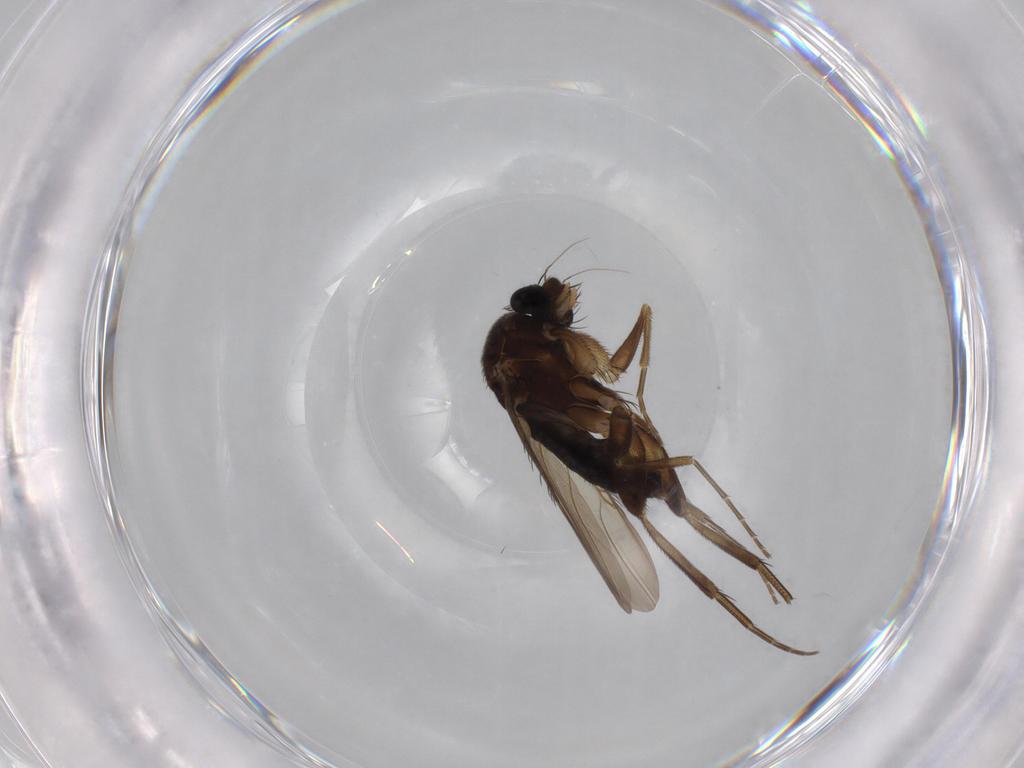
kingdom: Animalia
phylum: Arthropoda
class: Insecta
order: Diptera
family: Phoridae
